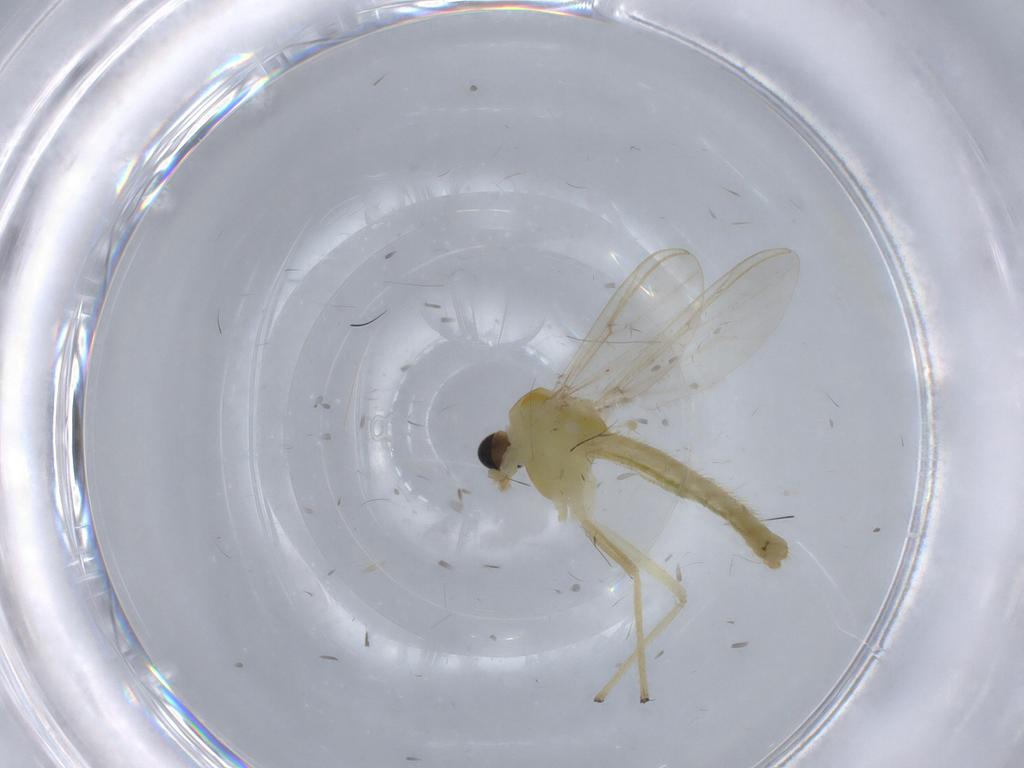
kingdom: Animalia
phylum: Arthropoda
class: Insecta
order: Diptera
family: Chironomidae
